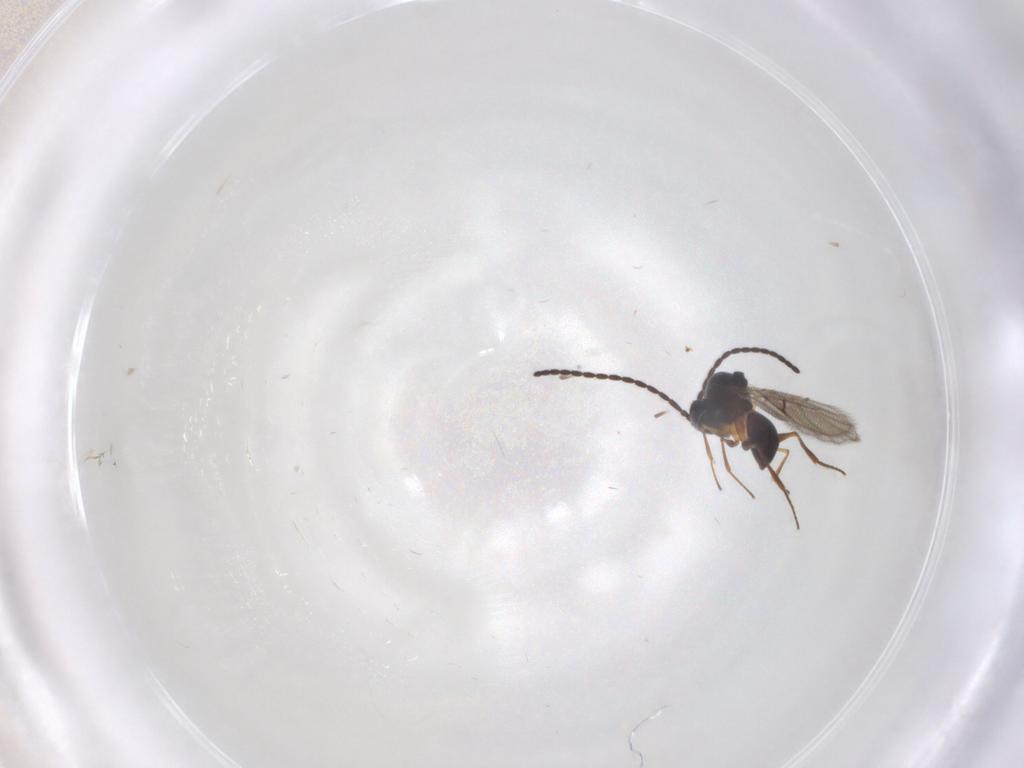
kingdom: Animalia
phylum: Arthropoda
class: Insecta
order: Hymenoptera
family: Figitidae
